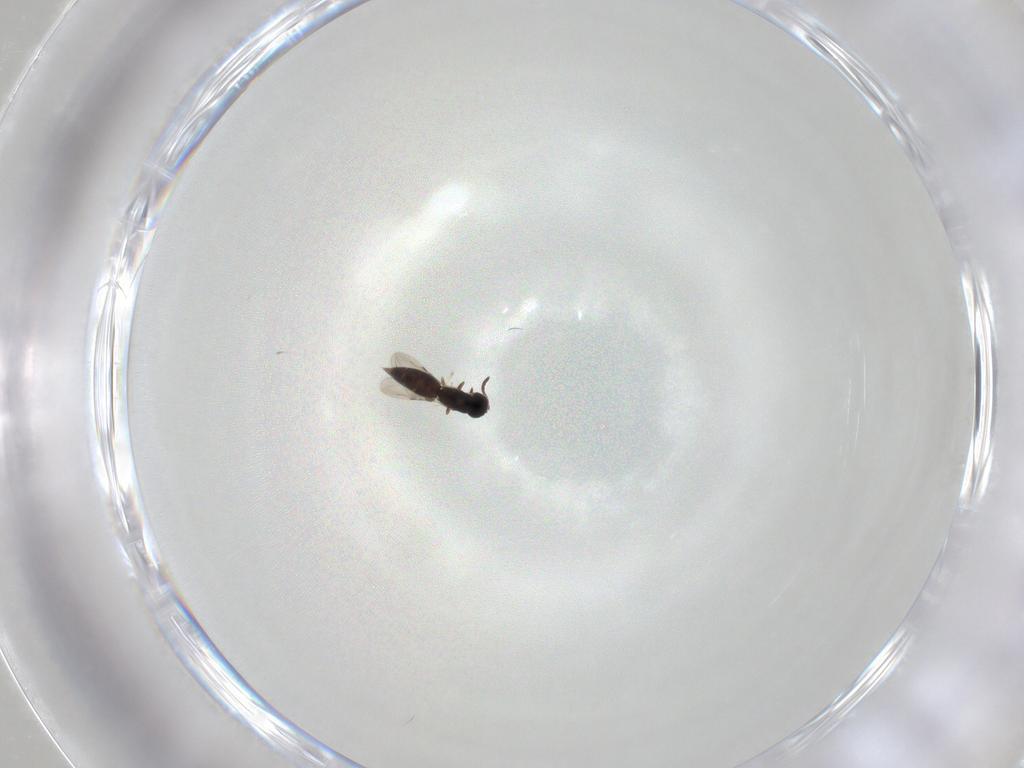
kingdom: Animalia
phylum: Arthropoda
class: Insecta
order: Hymenoptera
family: Ceraphronidae
